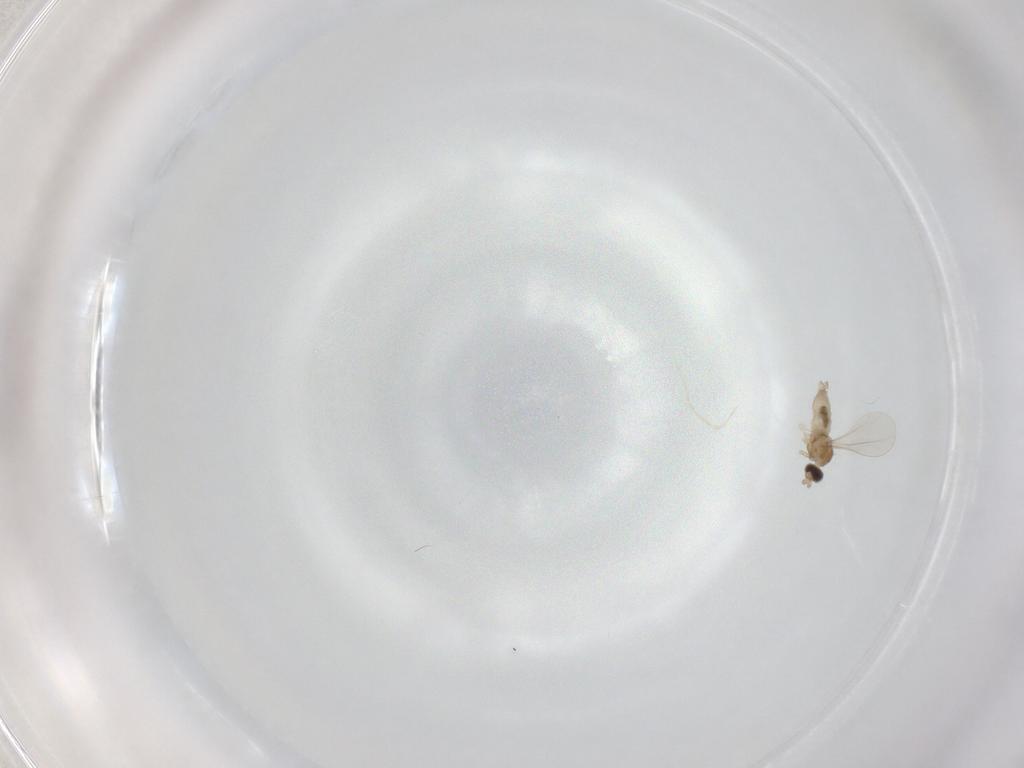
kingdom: Animalia
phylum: Arthropoda
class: Insecta
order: Diptera
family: Cecidomyiidae
